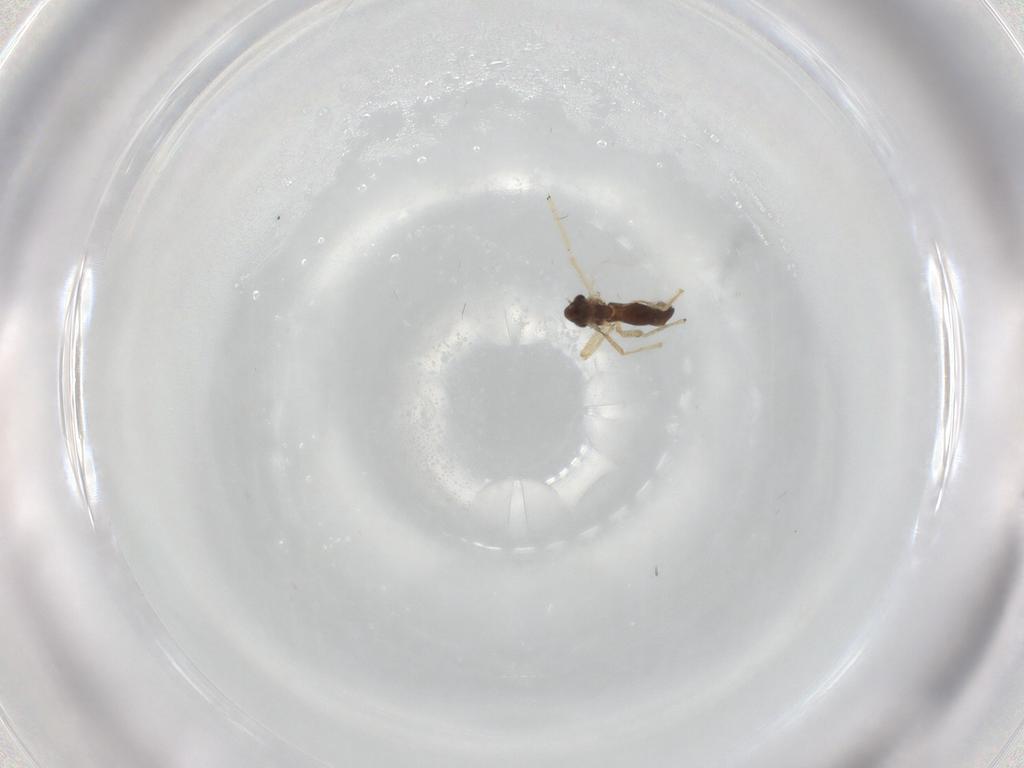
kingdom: Animalia
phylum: Arthropoda
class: Insecta
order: Diptera
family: Chironomidae
